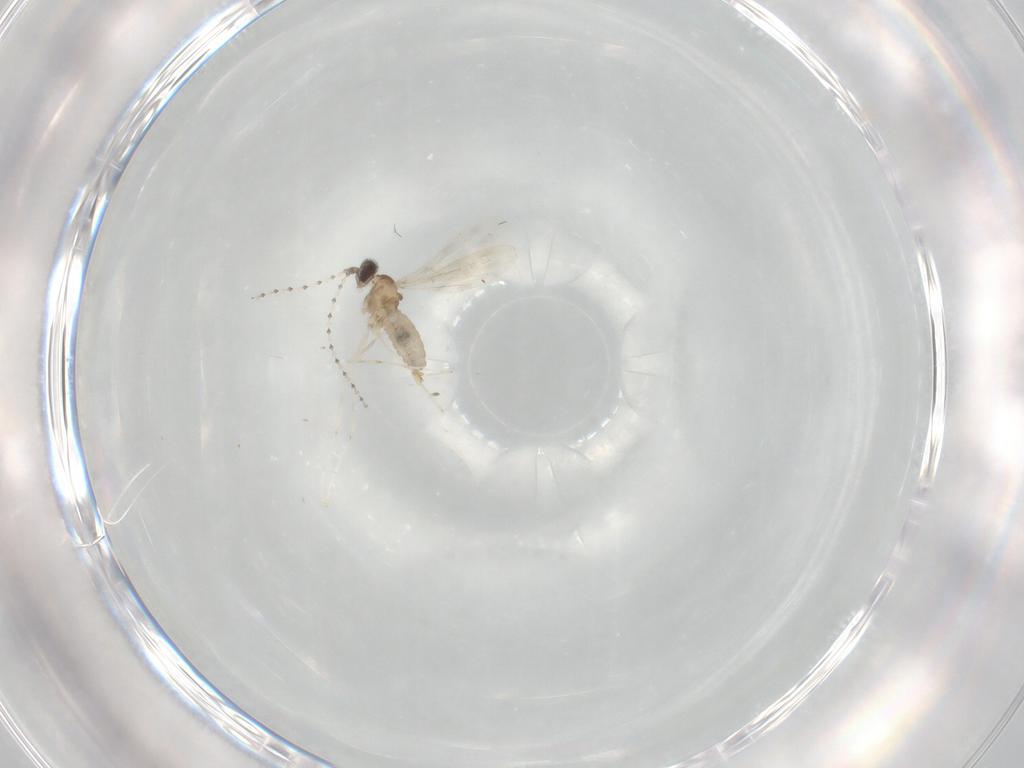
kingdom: Animalia
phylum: Arthropoda
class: Insecta
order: Diptera
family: Cecidomyiidae
